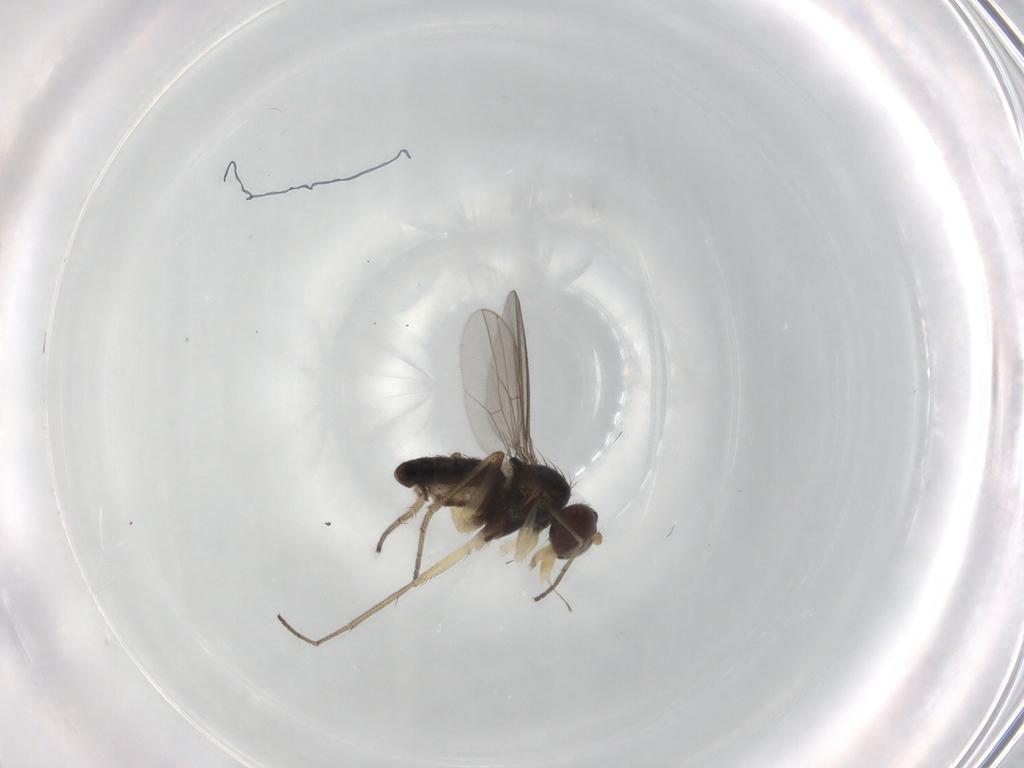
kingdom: Animalia
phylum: Arthropoda
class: Insecta
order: Diptera
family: Dolichopodidae
